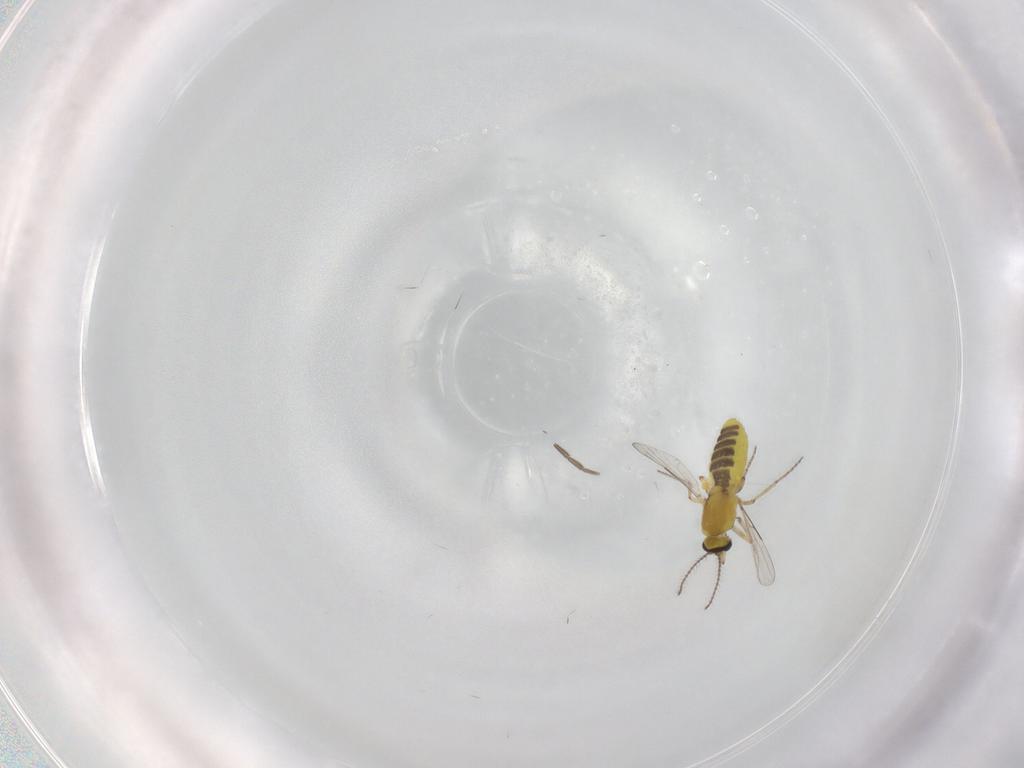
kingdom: Animalia
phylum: Arthropoda
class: Insecta
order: Diptera
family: Ceratopogonidae
